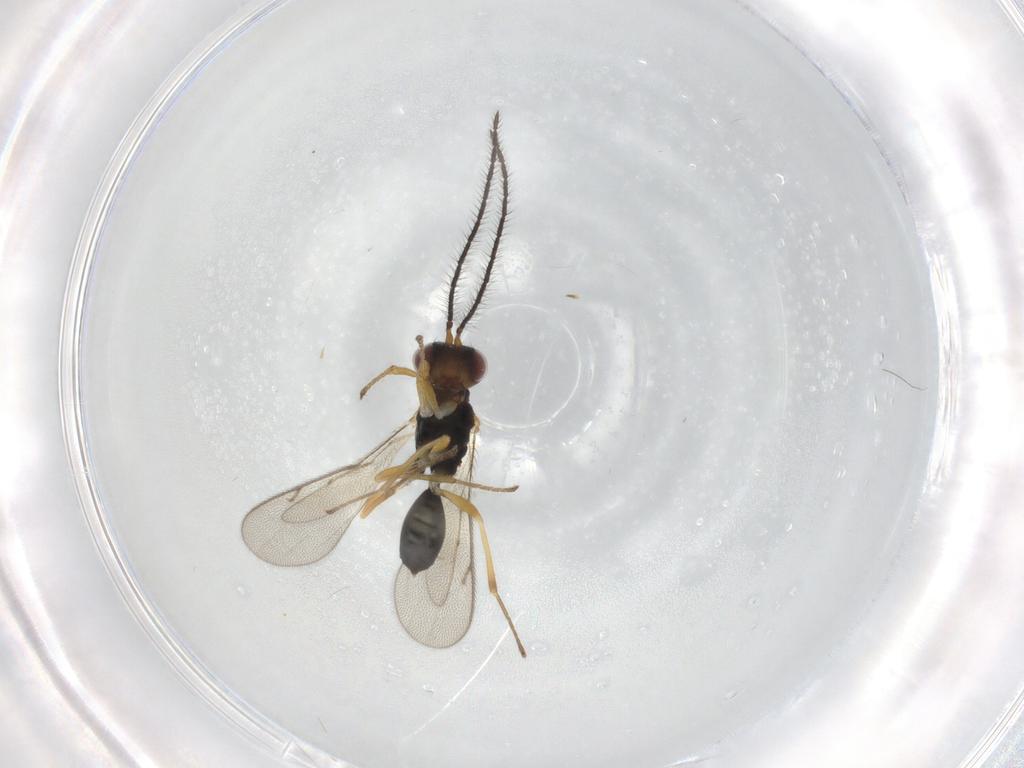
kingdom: Animalia
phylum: Arthropoda
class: Insecta
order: Hymenoptera
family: Diparidae
